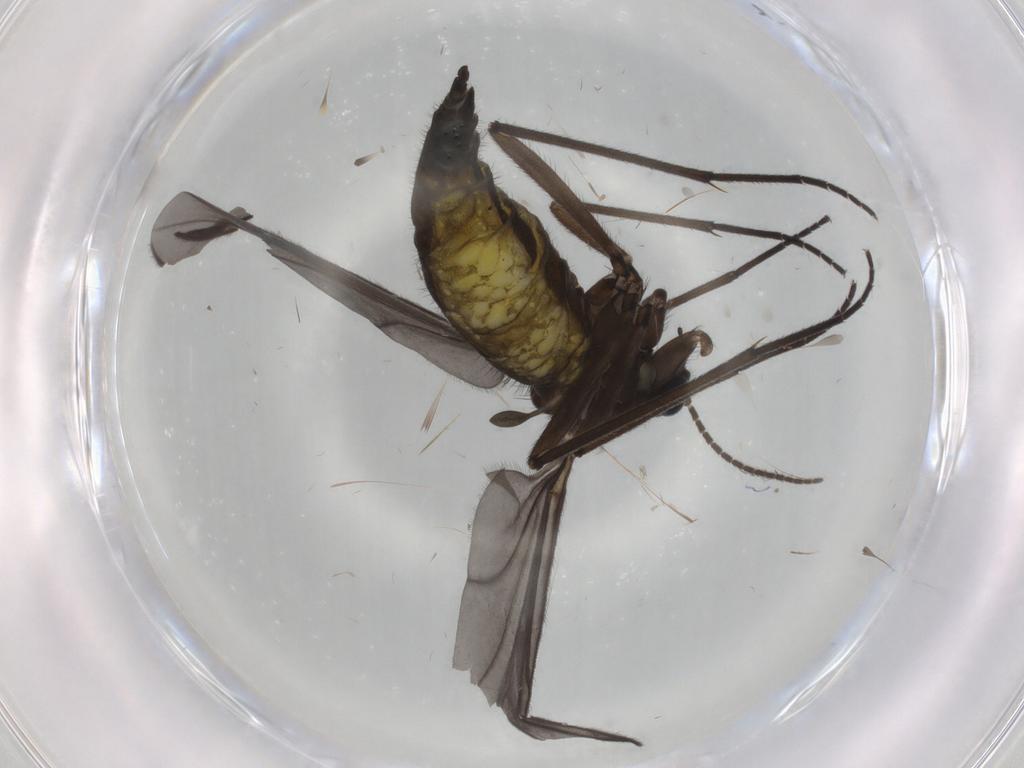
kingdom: Animalia
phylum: Arthropoda
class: Insecta
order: Diptera
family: Sciaridae
